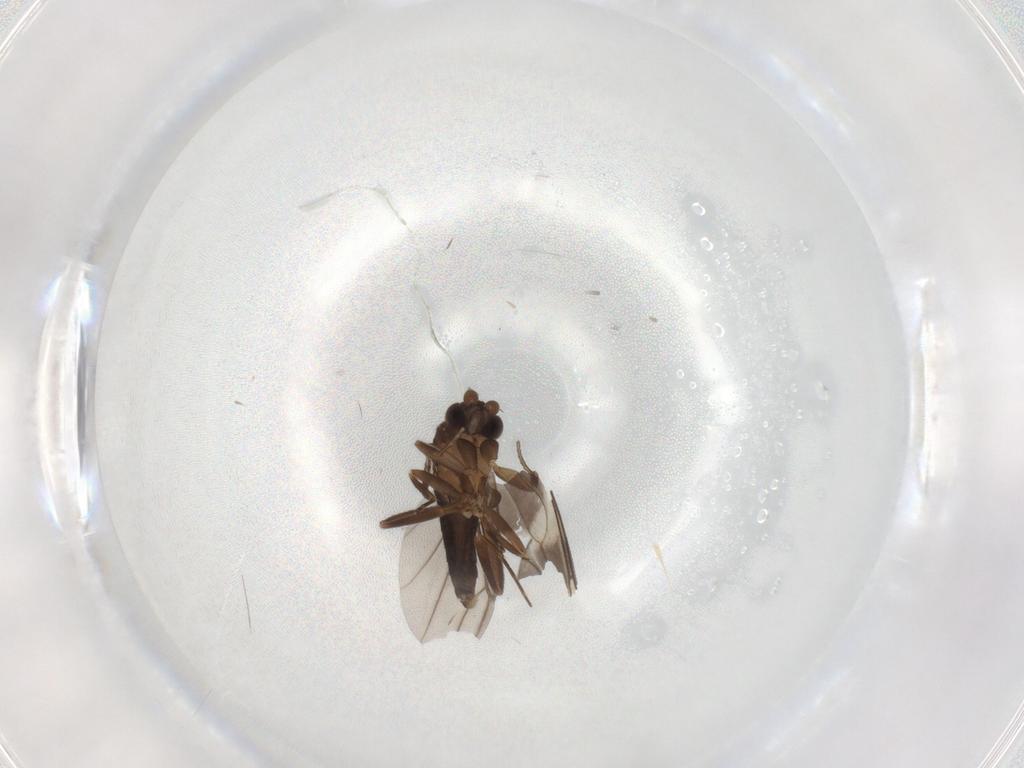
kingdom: Animalia
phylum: Arthropoda
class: Insecta
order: Diptera
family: Sciaridae
